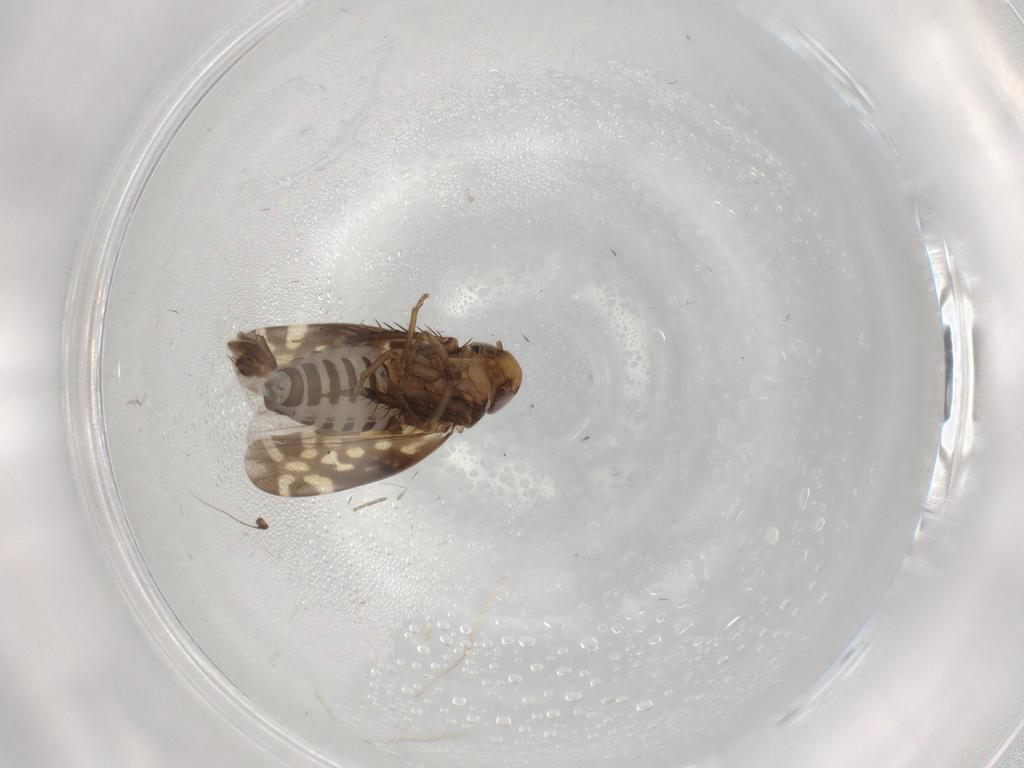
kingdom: Animalia
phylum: Arthropoda
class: Insecta
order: Hemiptera
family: Cicadellidae
